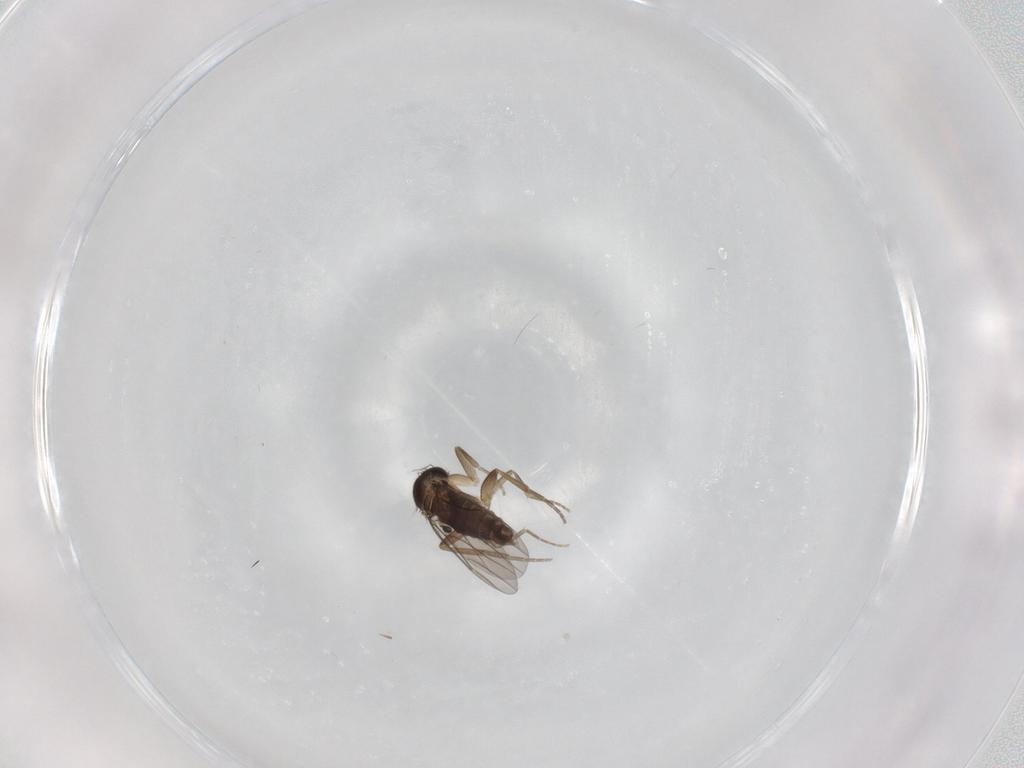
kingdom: Animalia
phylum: Arthropoda
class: Insecta
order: Diptera
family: Phoridae
